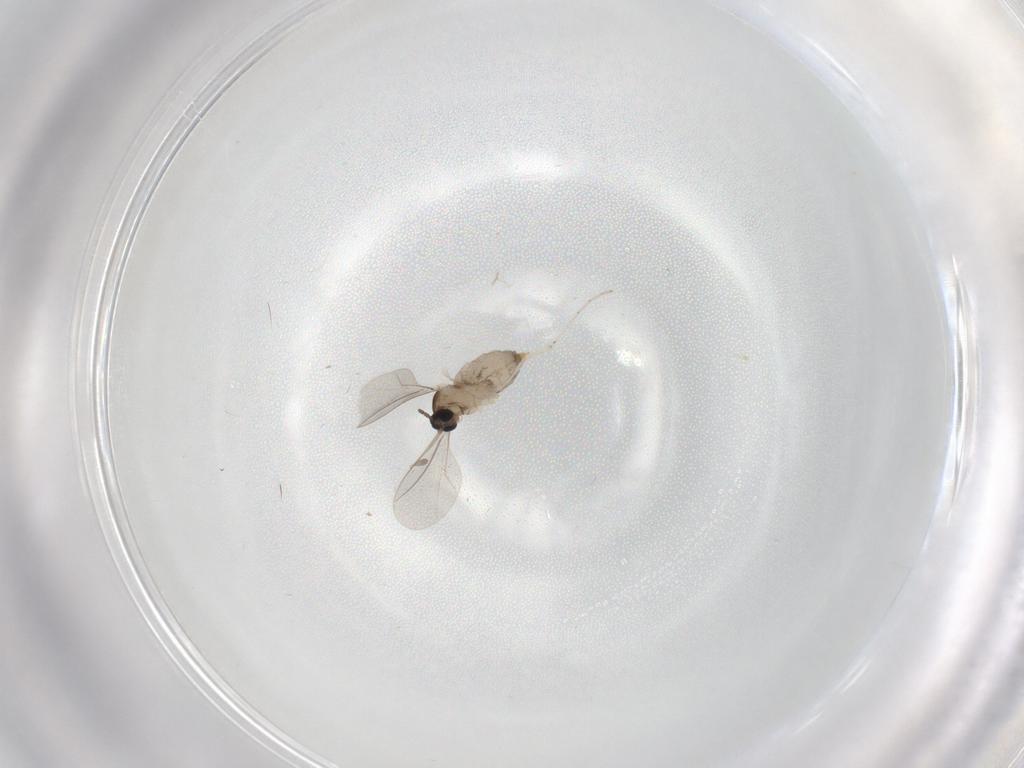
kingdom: Animalia
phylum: Arthropoda
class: Insecta
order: Diptera
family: Cecidomyiidae
